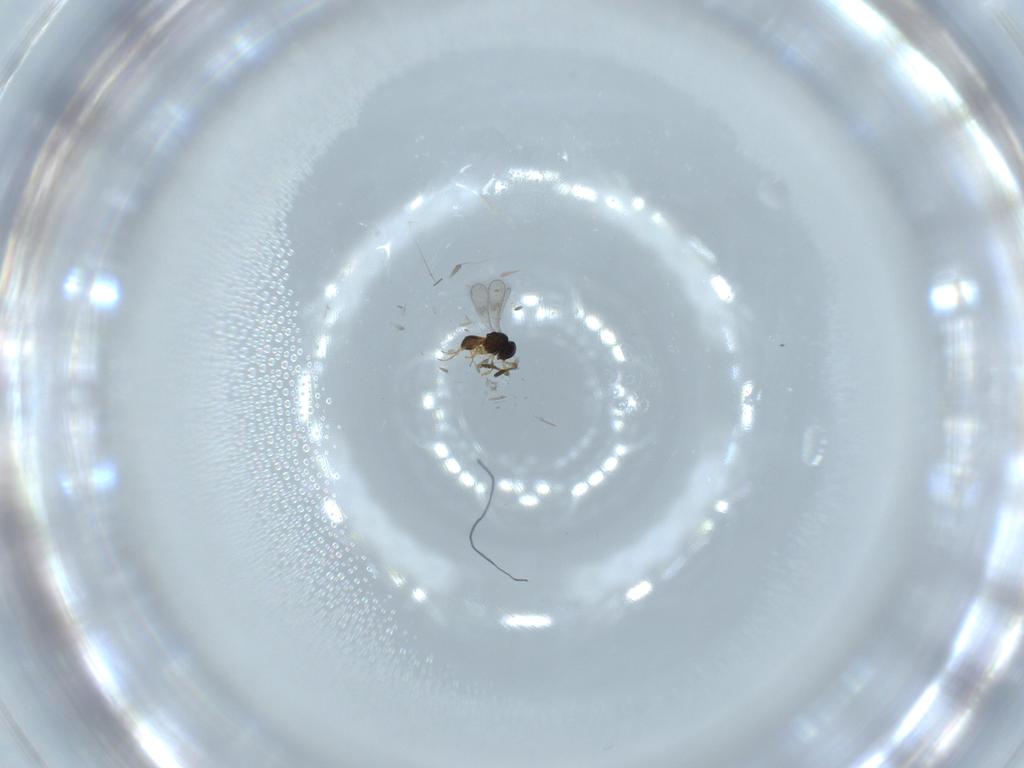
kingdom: Animalia
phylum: Arthropoda
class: Insecta
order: Hymenoptera
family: Scelionidae
